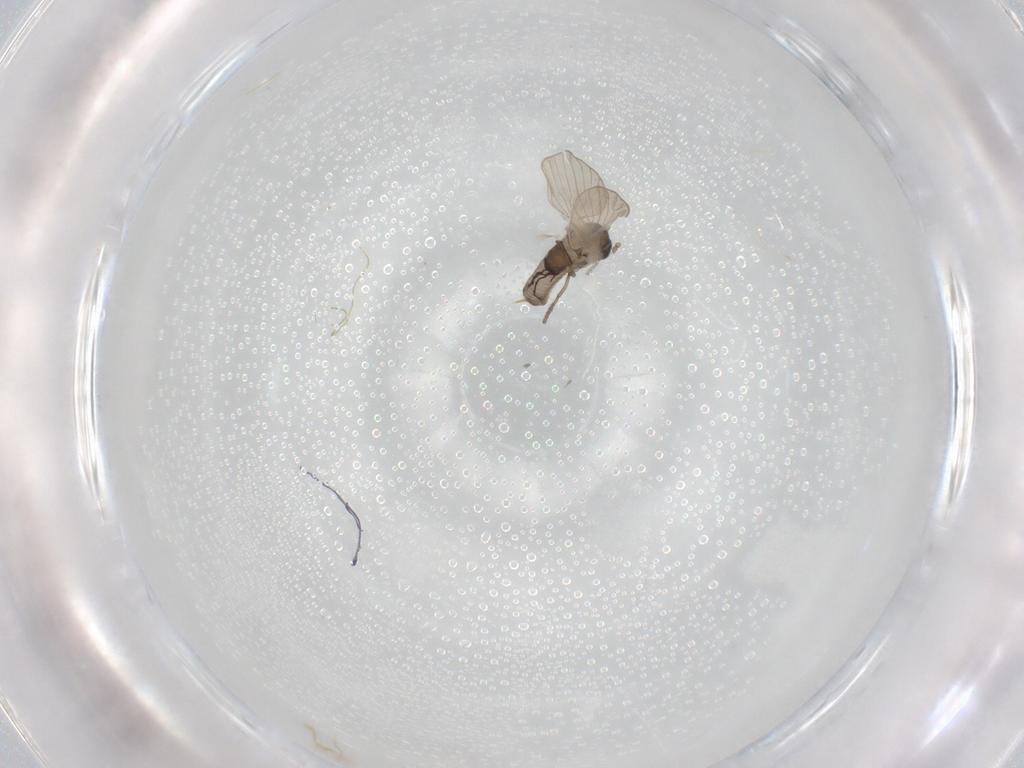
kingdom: Animalia
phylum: Arthropoda
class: Insecta
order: Diptera
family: Psychodidae
